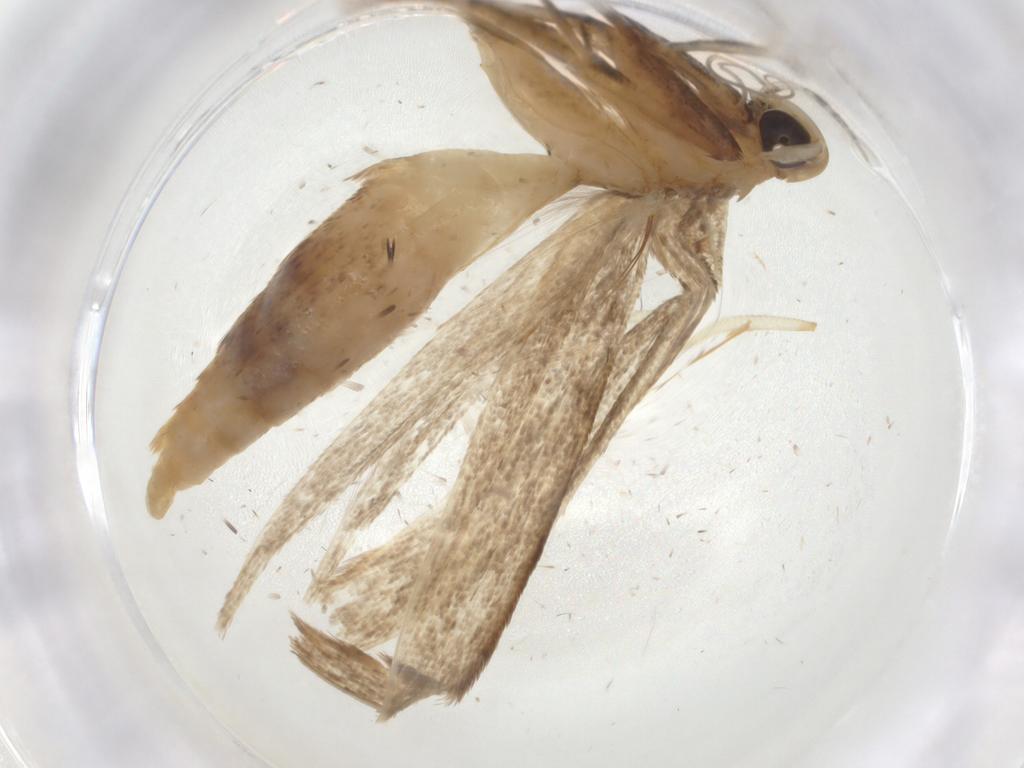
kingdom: Animalia
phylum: Arthropoda
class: Insecta
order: Lepidoptera
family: Erebidae
